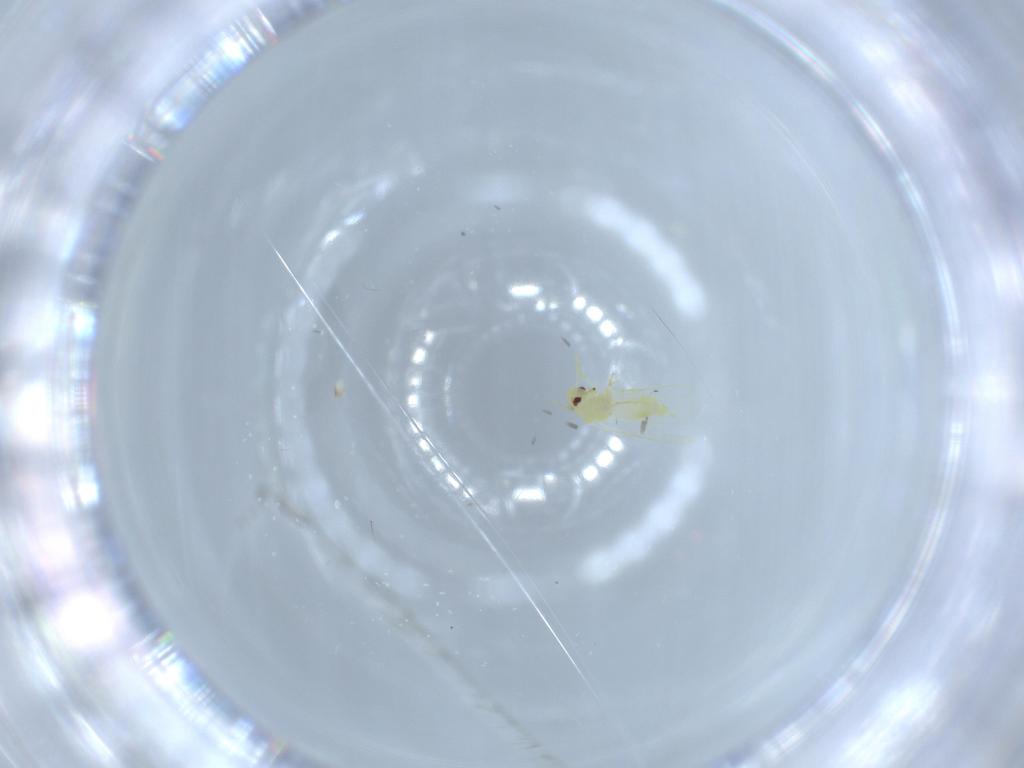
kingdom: Animalia
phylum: Arthropoda
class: Insecta
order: Hemiptera
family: Aleyrodidae
